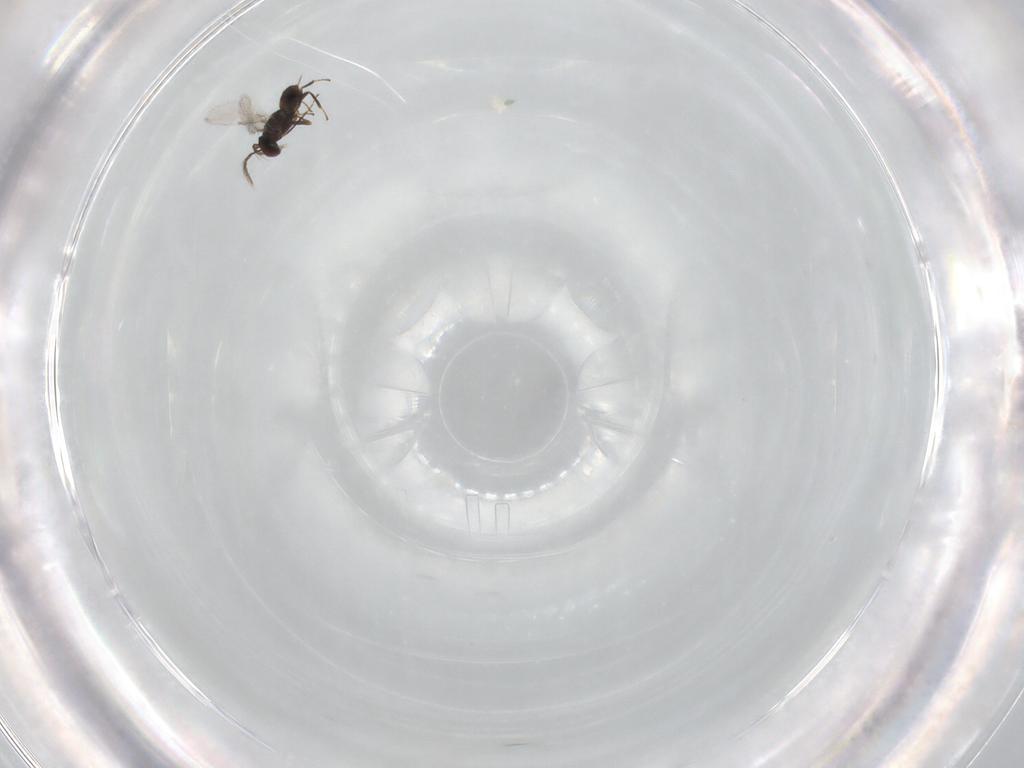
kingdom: Animalia
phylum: Arthropoda
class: Insecta
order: Hymenoptera
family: Eulophidae
